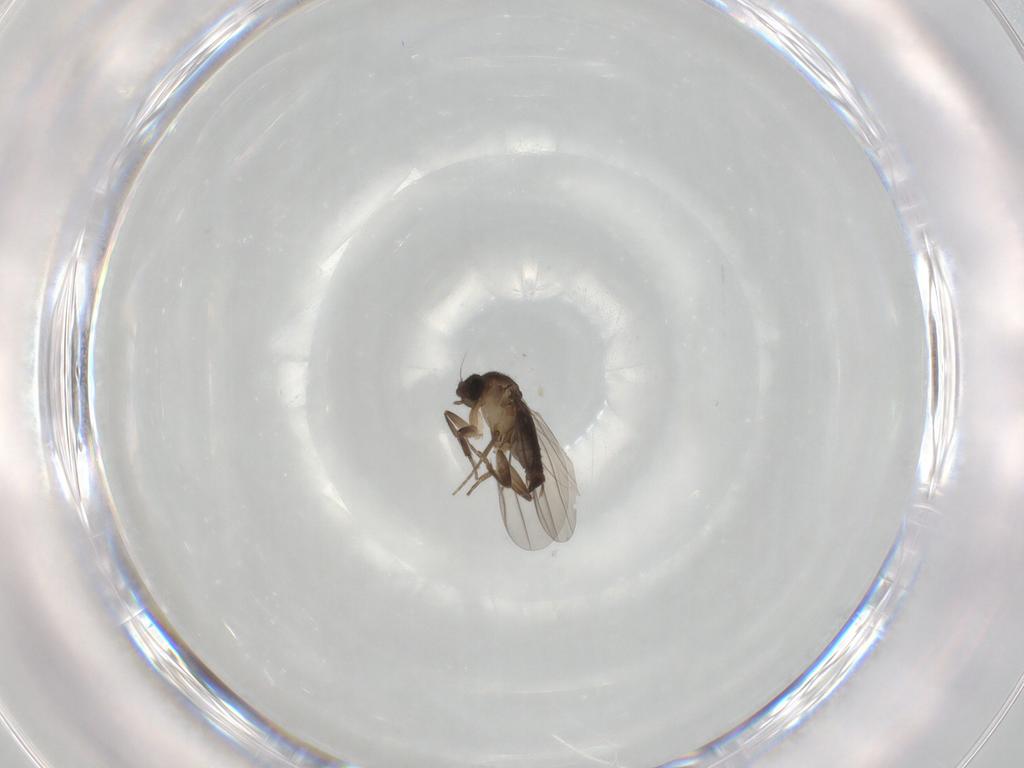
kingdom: Animalia
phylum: Arthropoda
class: Insecta
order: Diptera
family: Phoridae
